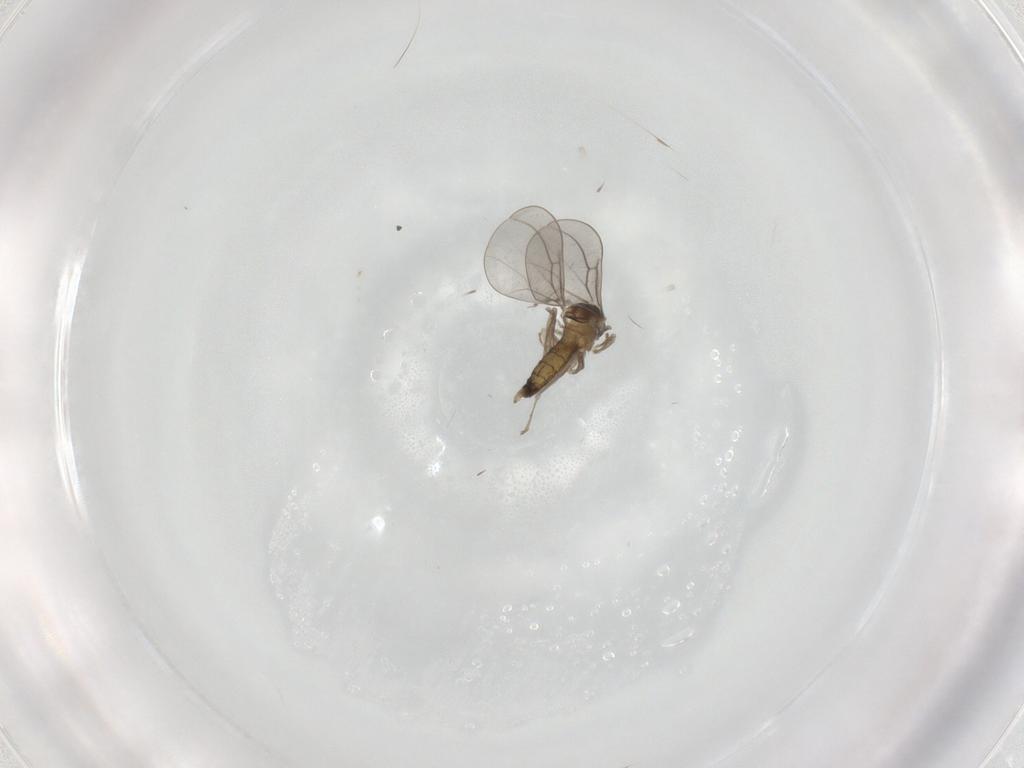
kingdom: Animalia
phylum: Arthropoda
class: Insecta
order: Diptera
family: Cecidomyiidae
